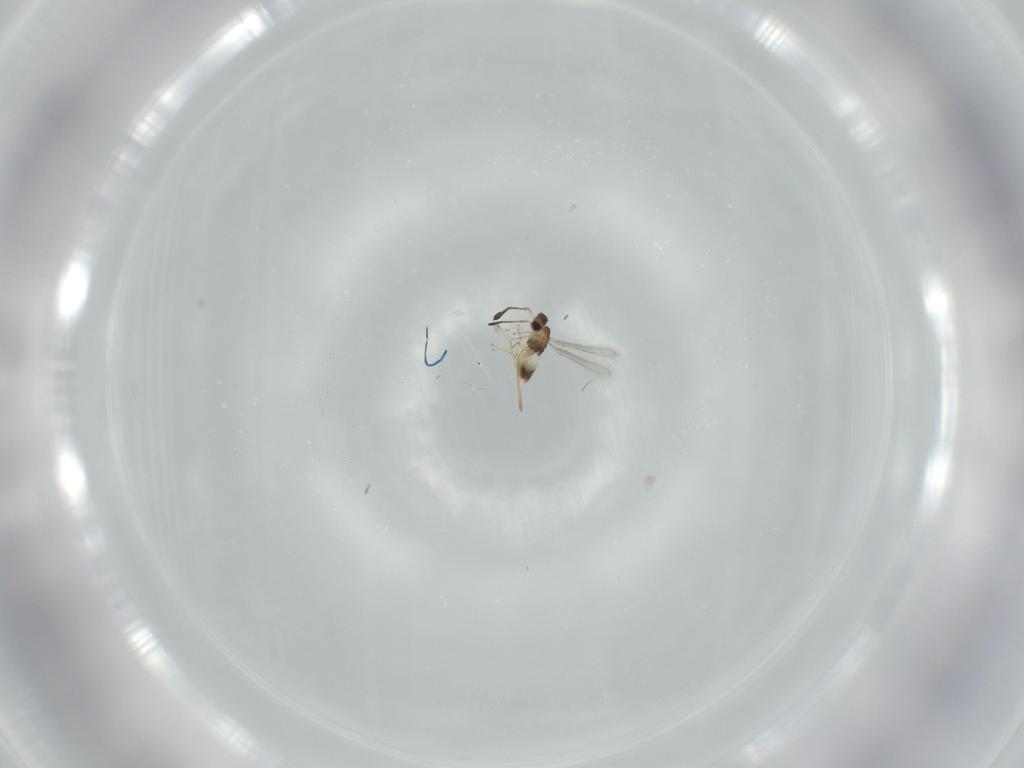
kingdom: Animalia
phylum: Arthropoda
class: Insecta
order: Hymenoptera
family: Mymaridae
